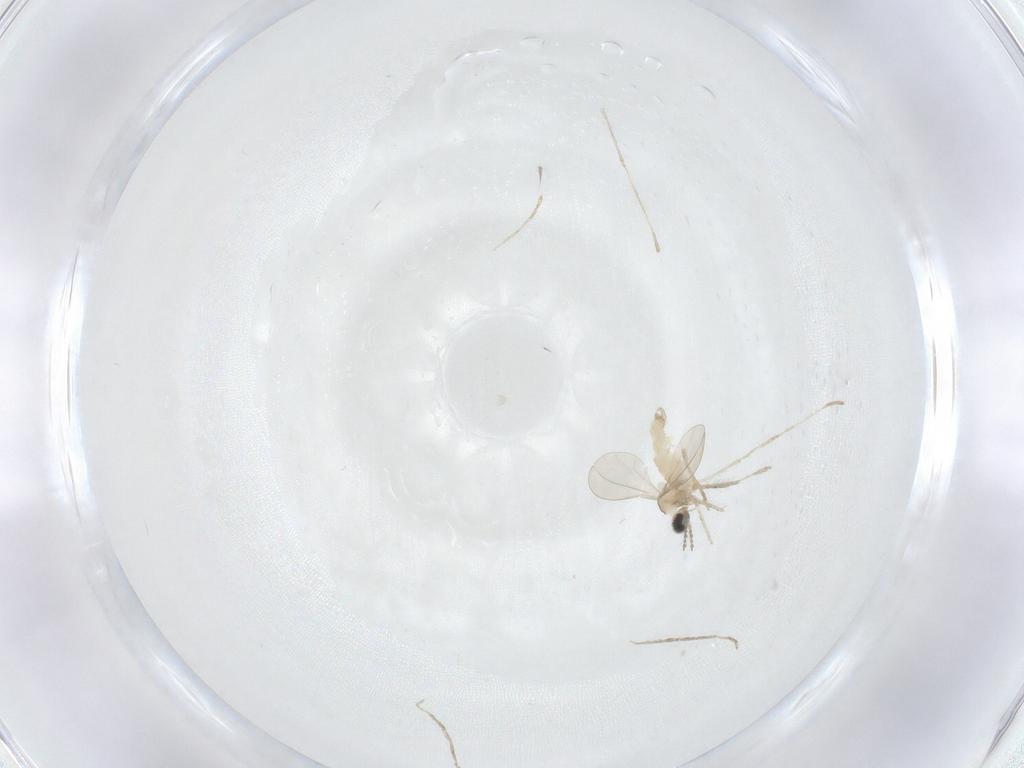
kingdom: Animalia
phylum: Arthropoda
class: Insecta
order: Diptera
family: Cecidomyiidae
